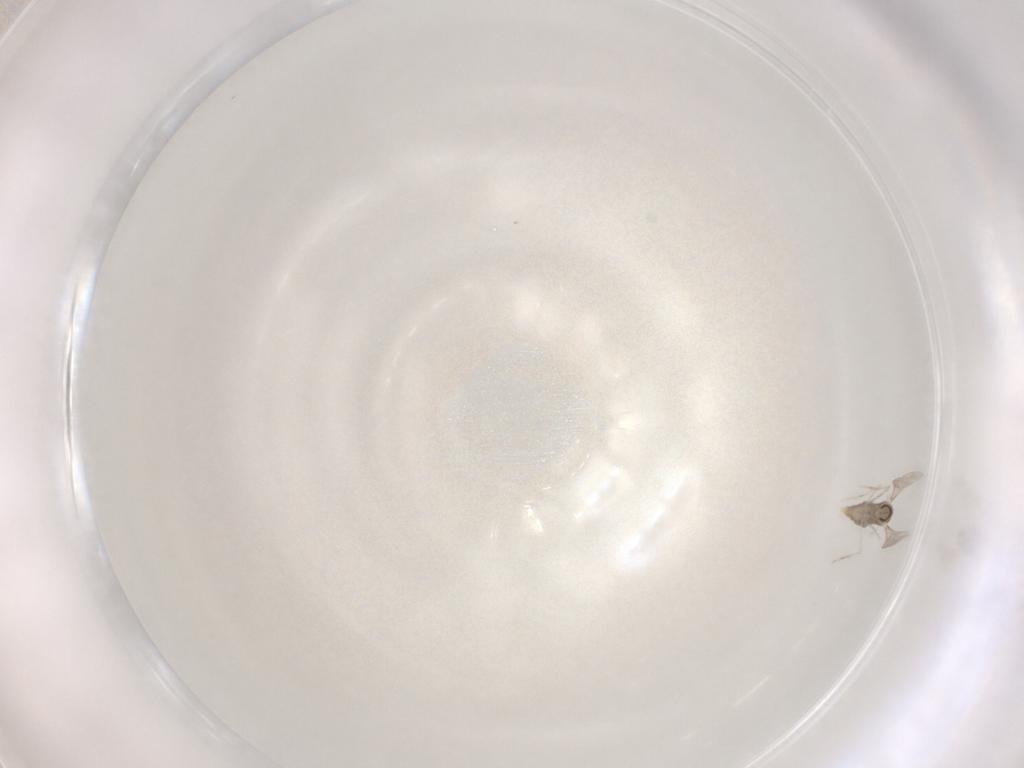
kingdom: Animalia
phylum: Arthropoda
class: Insecta
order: Diptera
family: Cecidomyiidae
